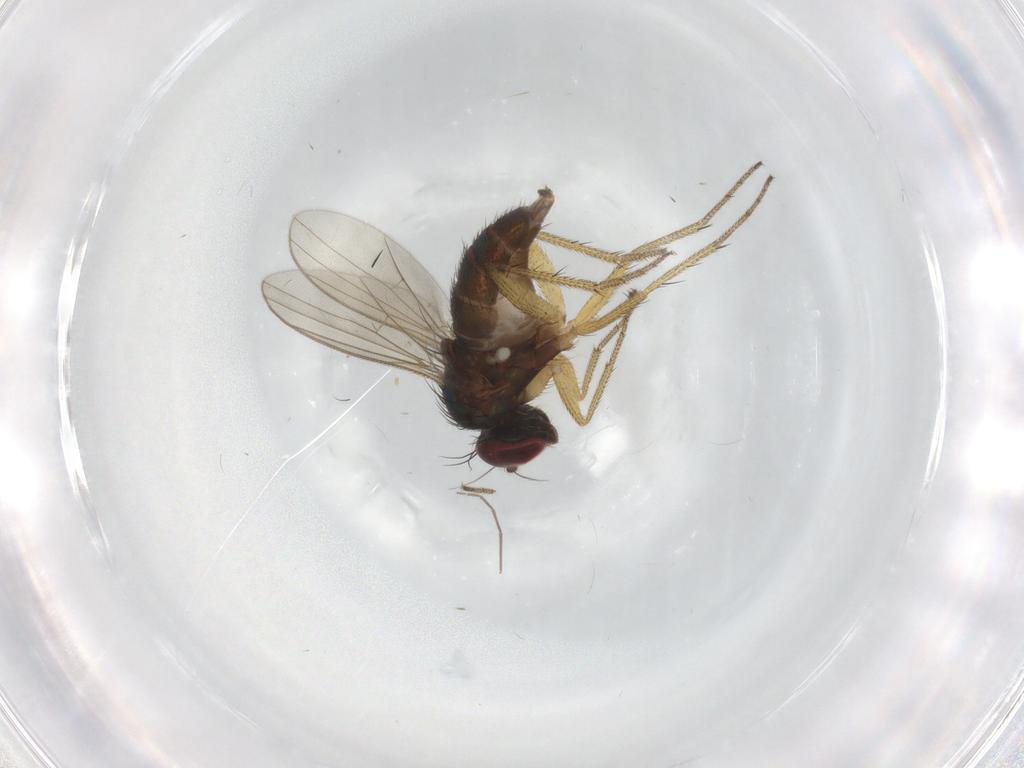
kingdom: Animalia
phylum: Arthropoda
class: Insecta
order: Diptera
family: Dolichopodidae
